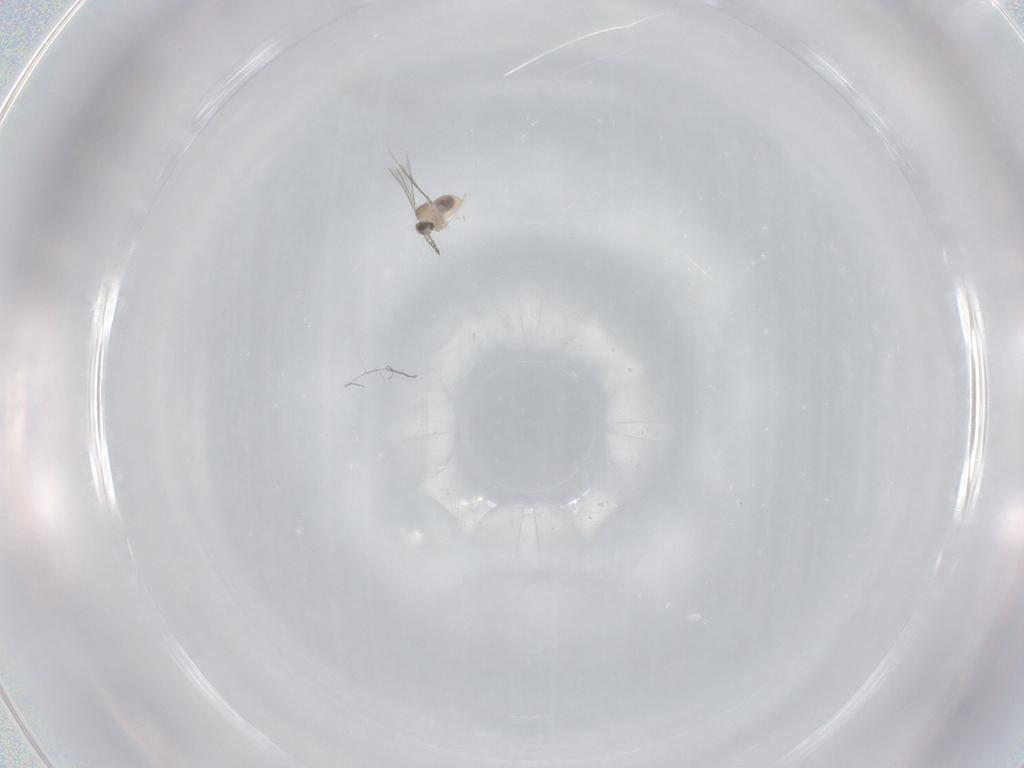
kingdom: Animalia
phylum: Arthropoda
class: Insecta
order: Diptera
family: Cecidomyiidae
